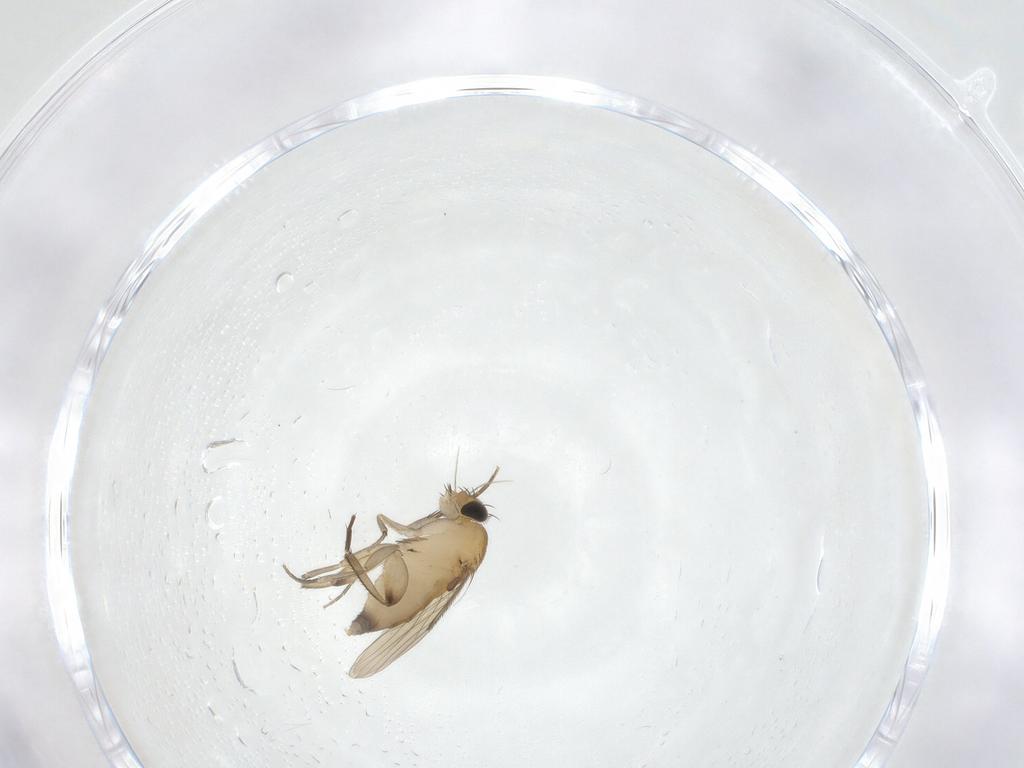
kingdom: Animalia
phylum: Arthropoda
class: Insecta
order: Diptera
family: Phoridae
